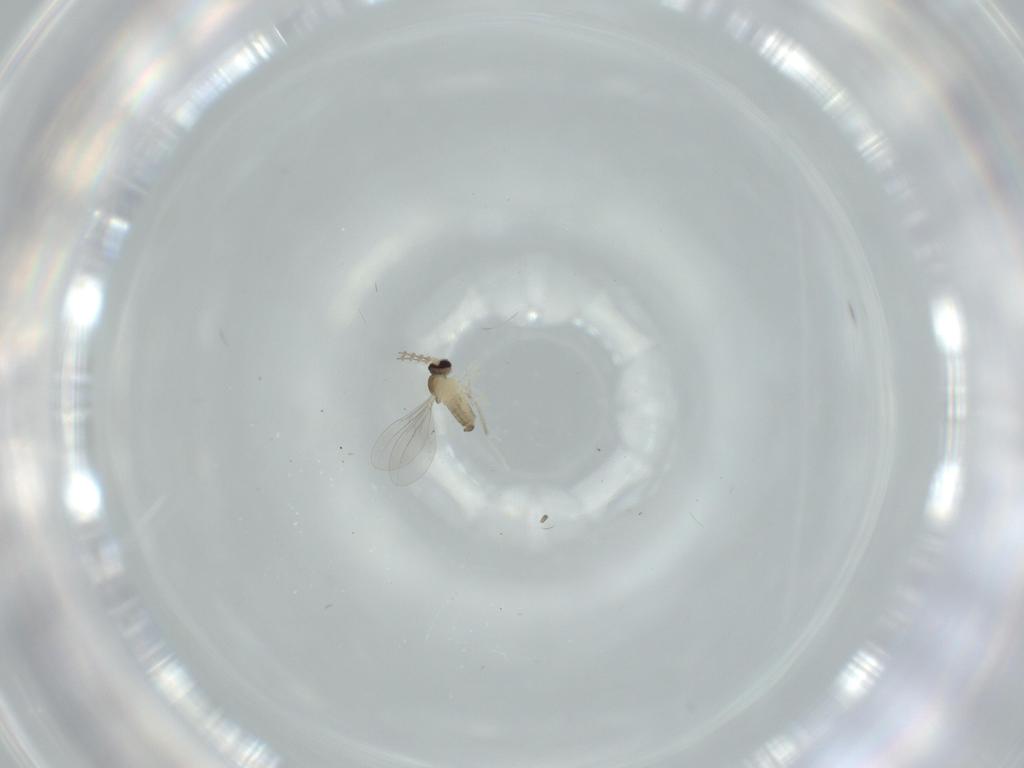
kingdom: Animalia
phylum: Arthropoda
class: Insecta
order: Diptera
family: Cecidomyiidae
